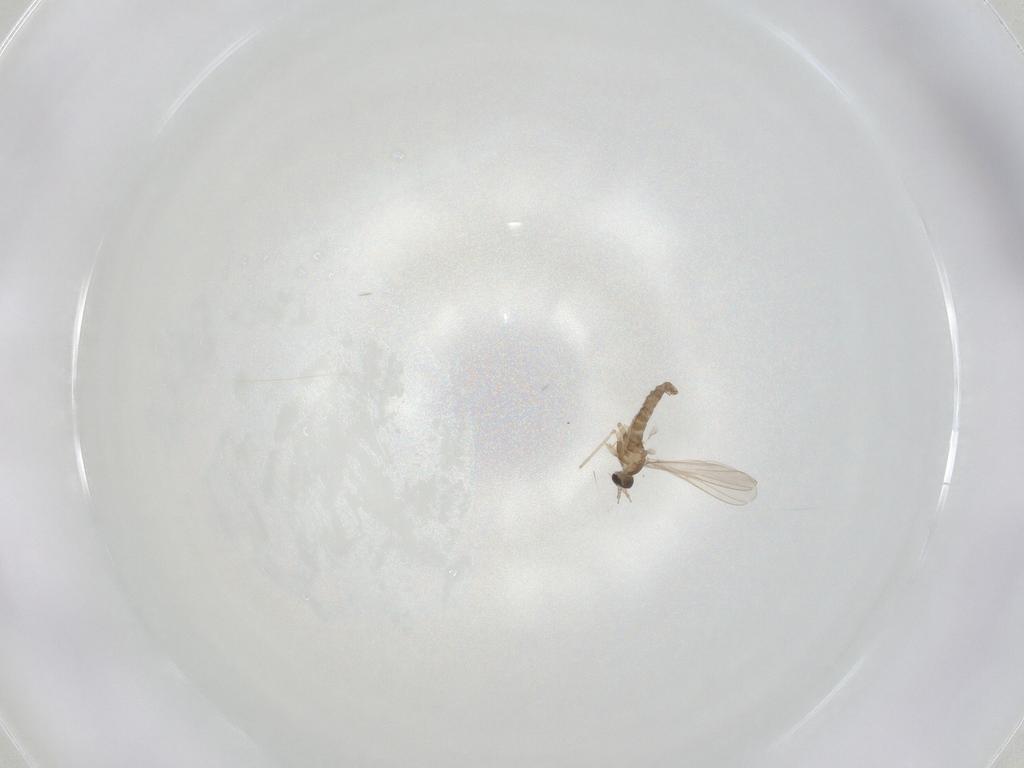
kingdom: Animalia
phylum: Arthropoda
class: Insecta
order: Diptera
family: Cecidomyiidae
